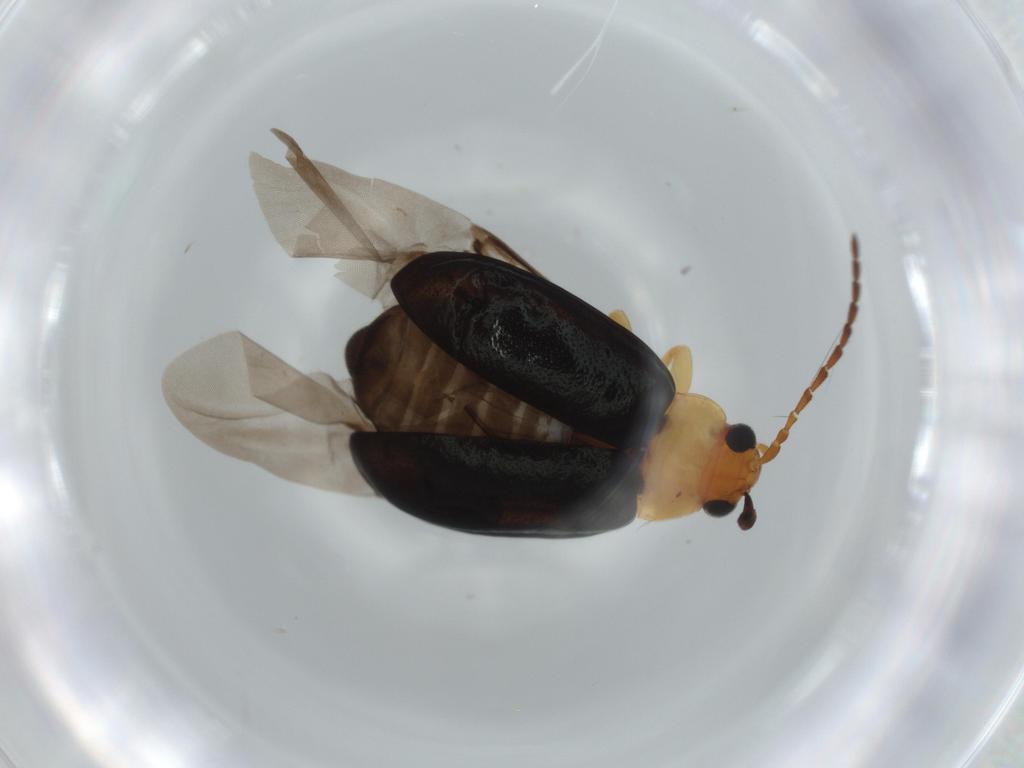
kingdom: Animalia
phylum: Arthropoda
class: Insecta
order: Coleoptera
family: Chrysomelidae
